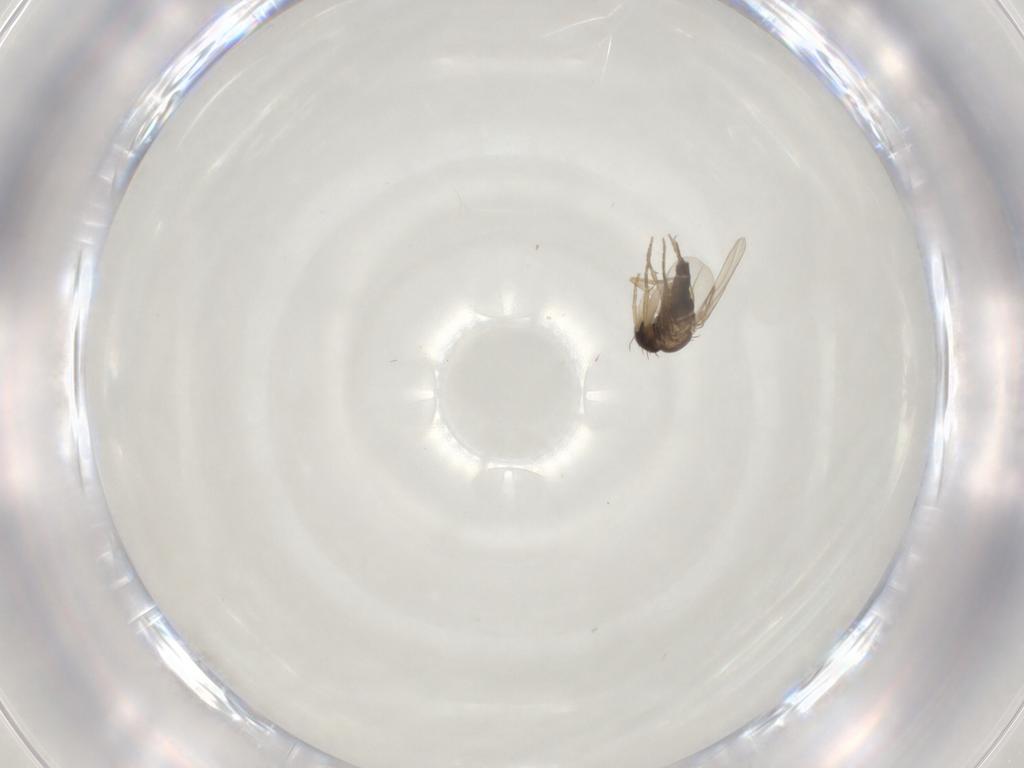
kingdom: Animalia
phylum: Arthropoda
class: Insecta
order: Diptera
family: Phoridae
